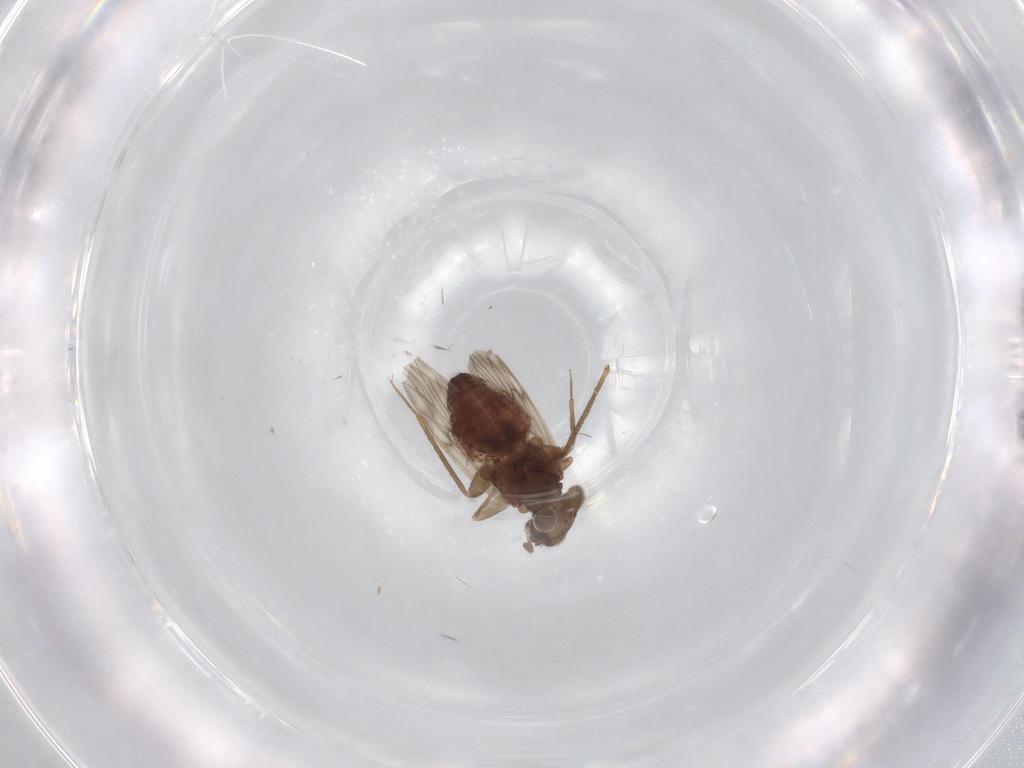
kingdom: Animalia
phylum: Arthropoda
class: Insecta
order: Psocodea
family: Lepidopsocidae
